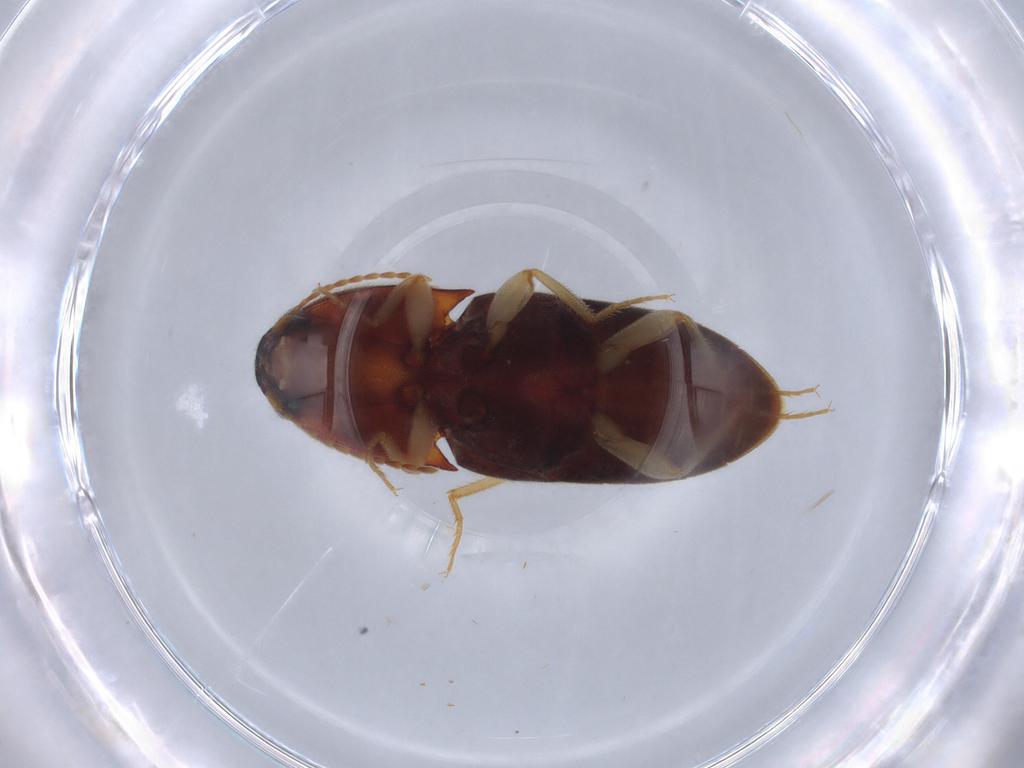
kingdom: Animalia
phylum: Arthropoda
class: Insecta
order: Coleoptera
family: Elateridae
